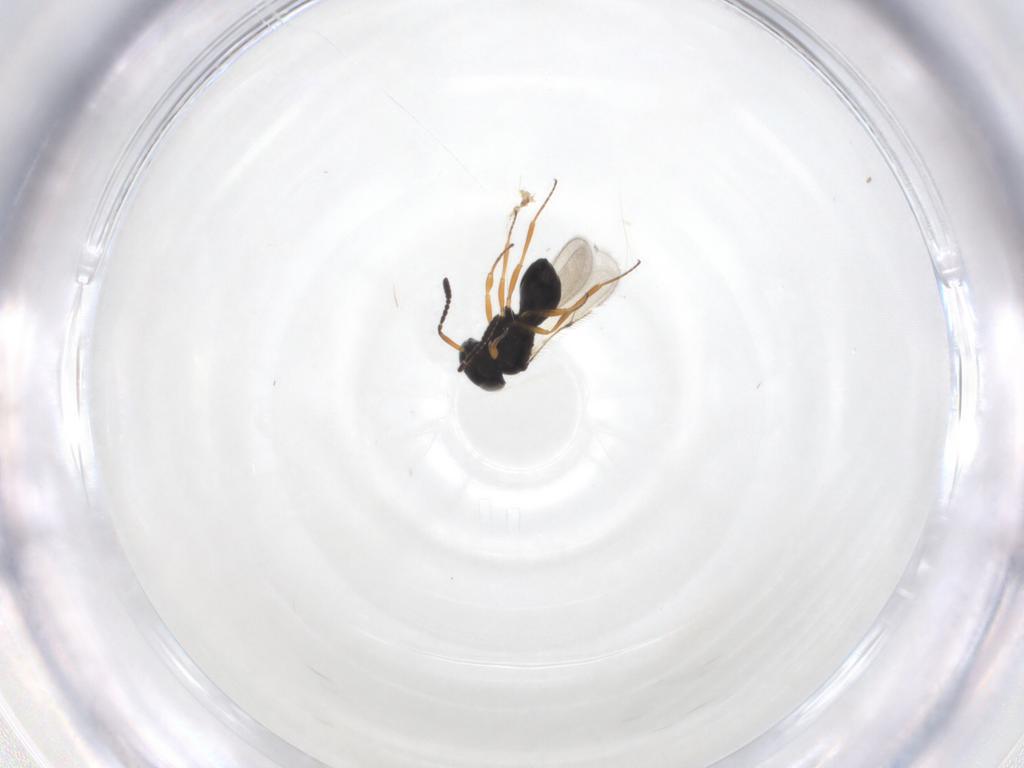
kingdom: Animalia
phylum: Arthropoda
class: Insecta
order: Hymenoptera
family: Scelionidae
